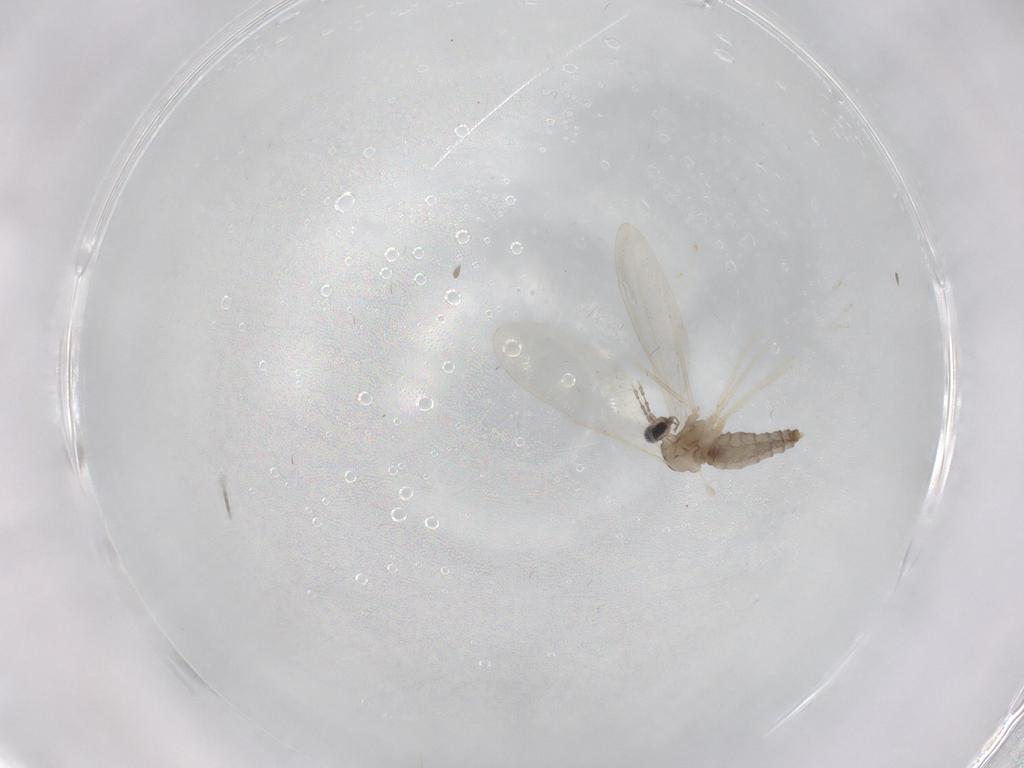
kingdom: Animalia
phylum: Arthropoda
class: Insecta
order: Diptera
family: Cecidomyiidae
